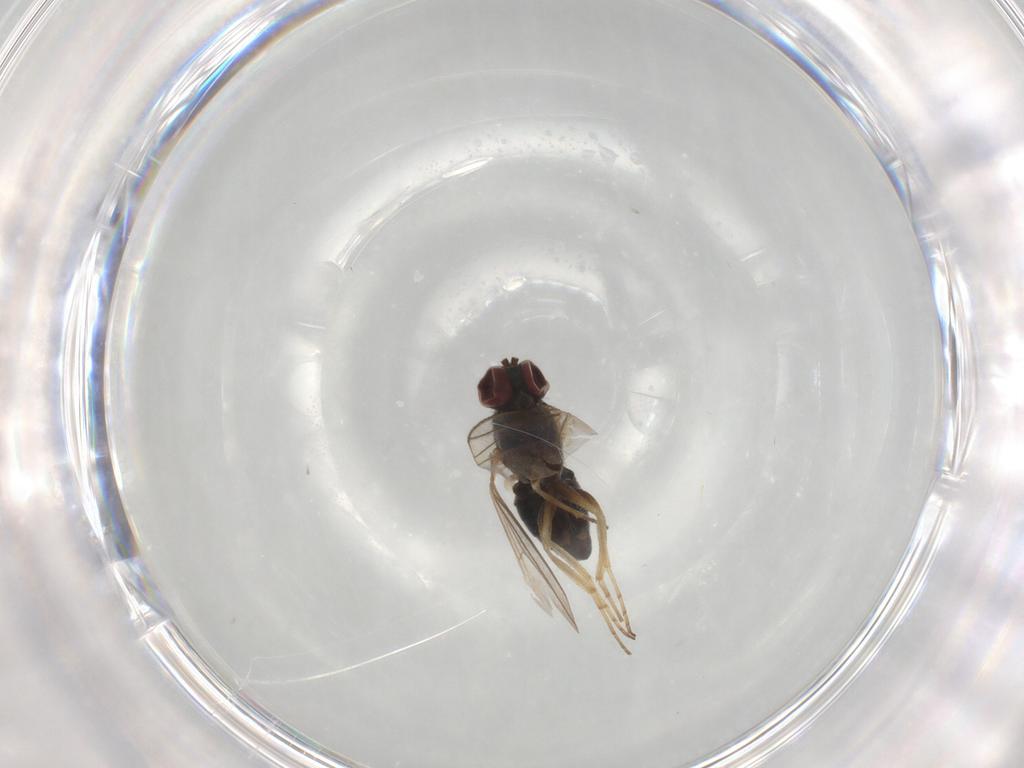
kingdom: Animalia
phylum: Arthropoda
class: Insecta
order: Diptera
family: Dolichopodidae
